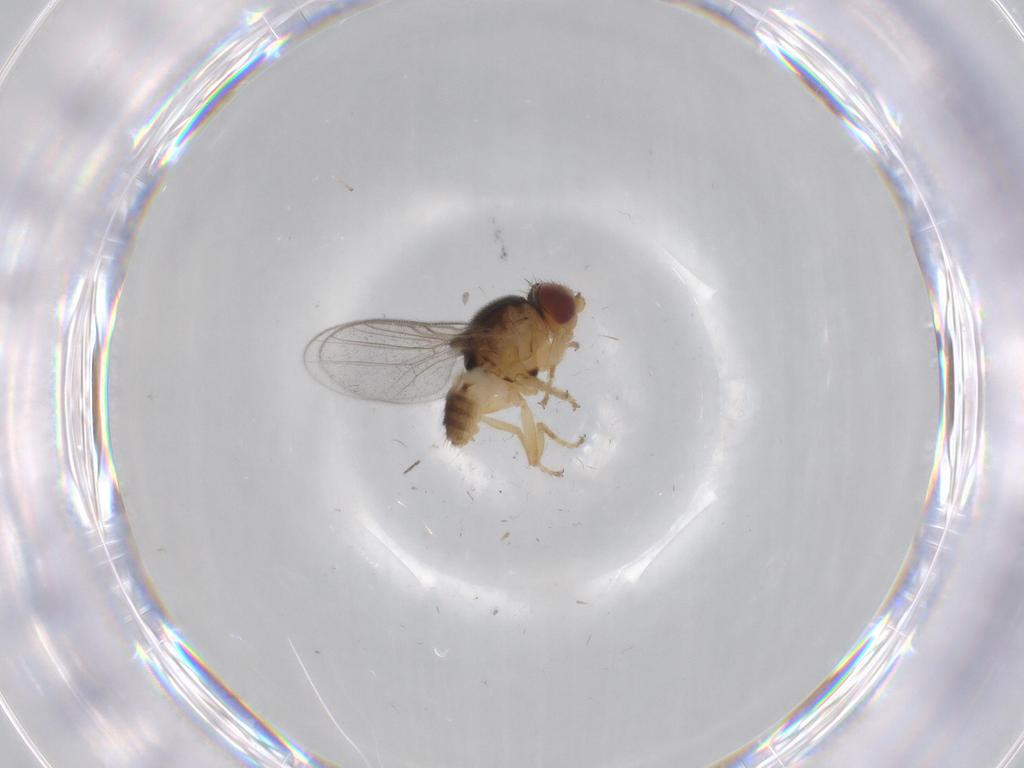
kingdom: Animalia
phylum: Arthropoda
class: Insecta
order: Diptera
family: Chloropidae
